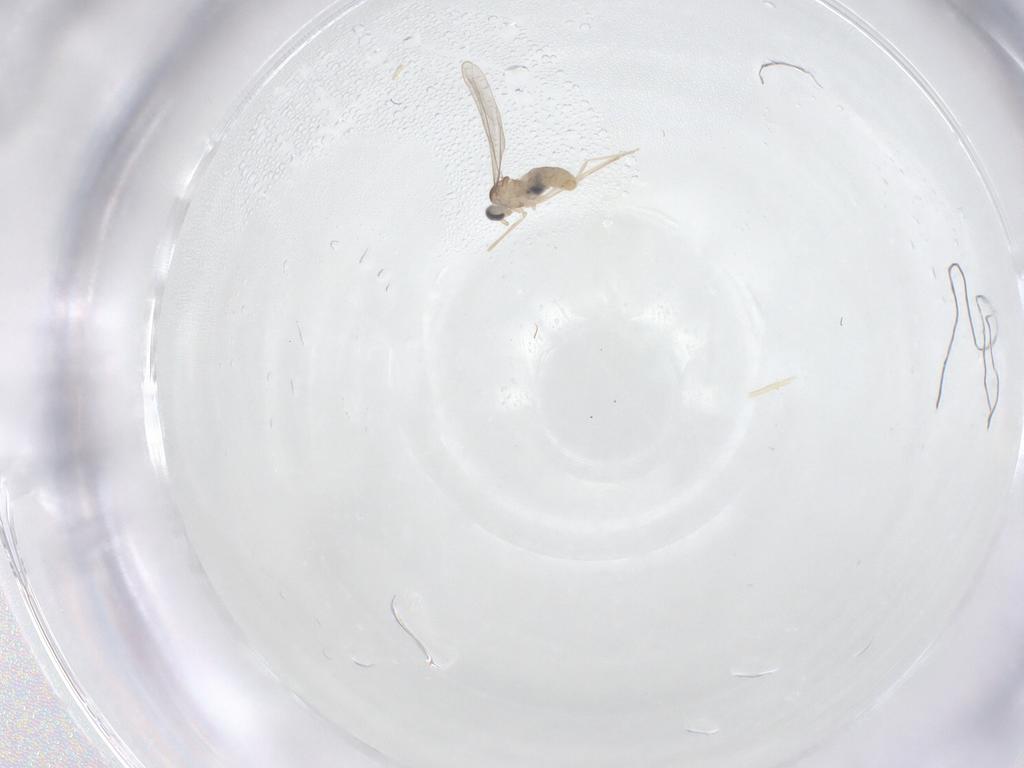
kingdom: Animalia
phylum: Arthropoda
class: Insecta
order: Diptera
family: Cecidomyiidae
